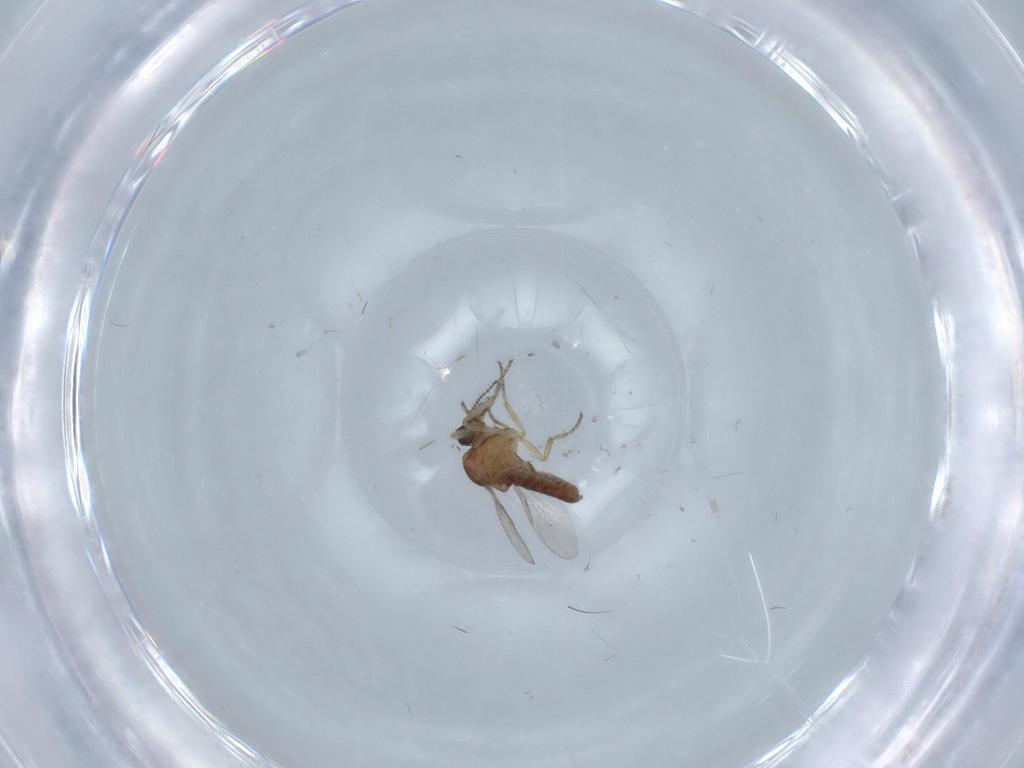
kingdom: Animalia
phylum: Arthropoda
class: Insecta
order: Diptera
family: Ceratopogonidae
